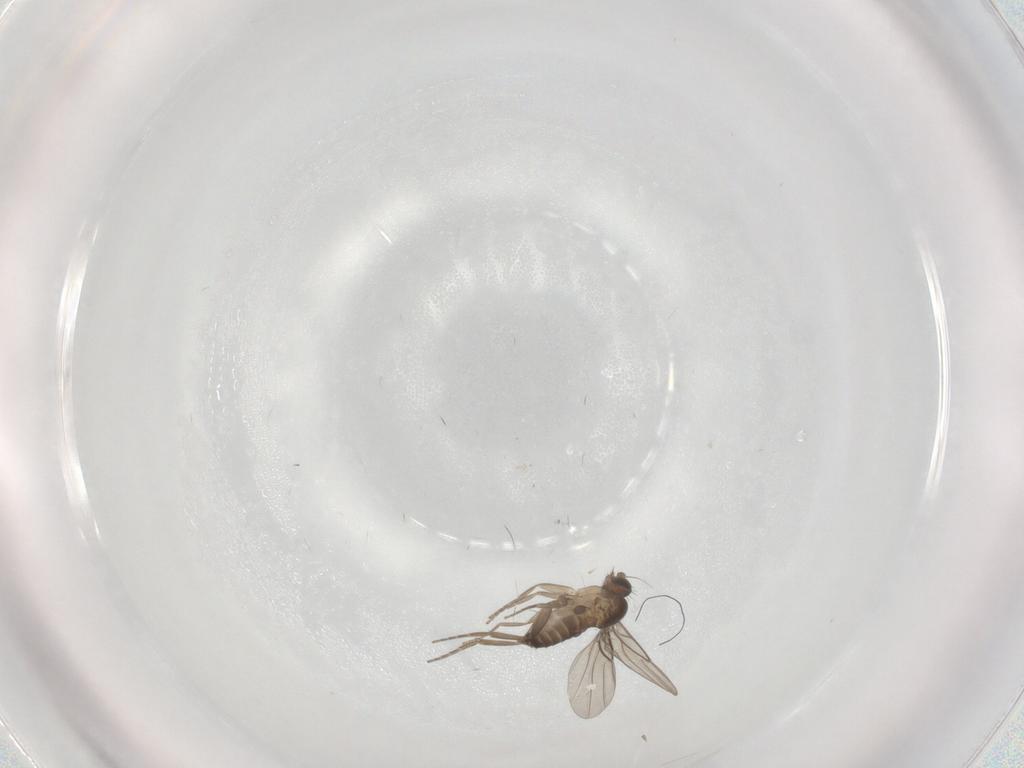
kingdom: Animalia
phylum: Arthropoda
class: Insecta
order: Diptera
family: Phoridae
